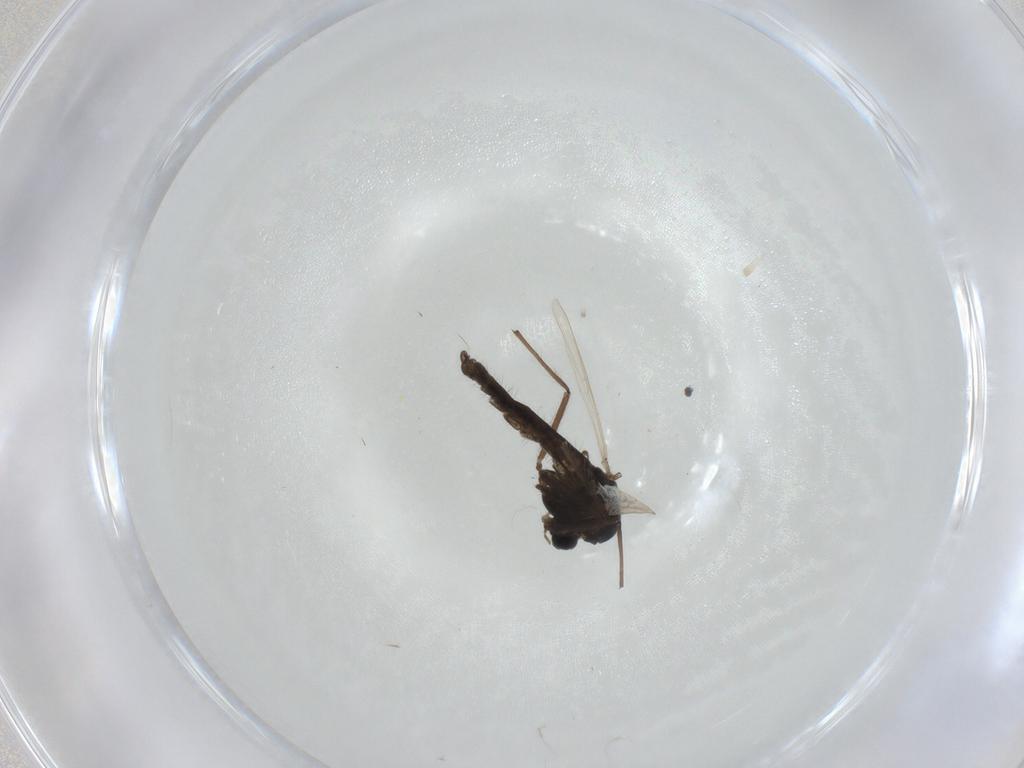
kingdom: Animalia
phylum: Arthropoda
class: Insecta
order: Diptera
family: Chironomidae
